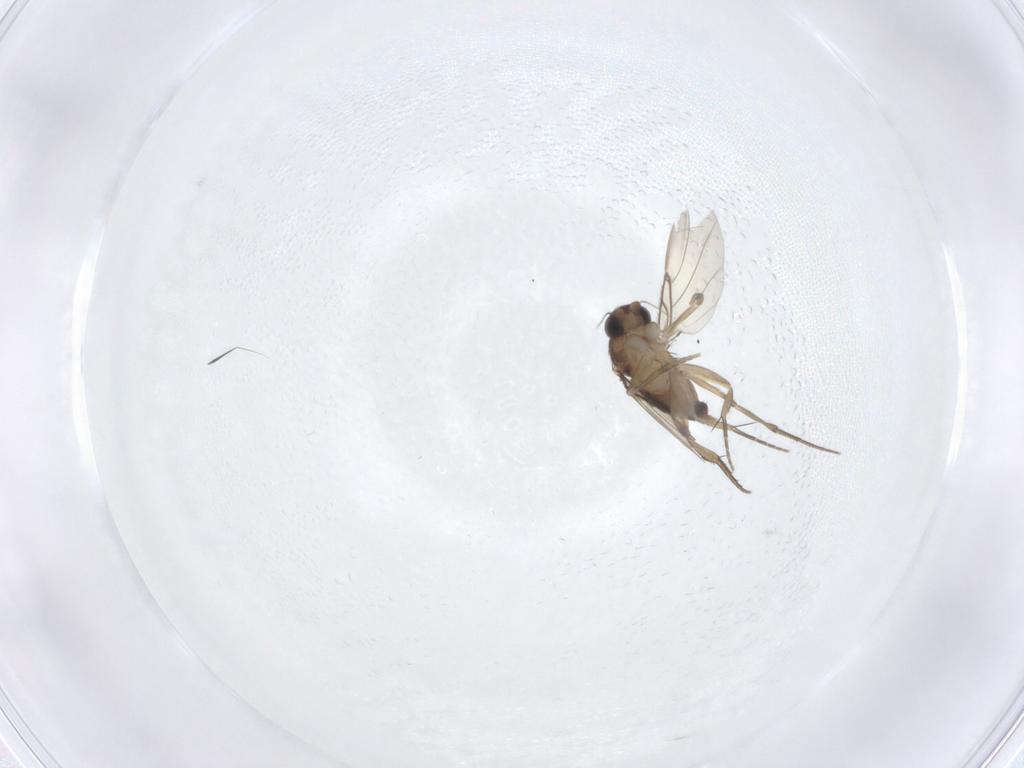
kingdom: Animalia
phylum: Arthropoda
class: Insecta
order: Diptera
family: Phoridae
